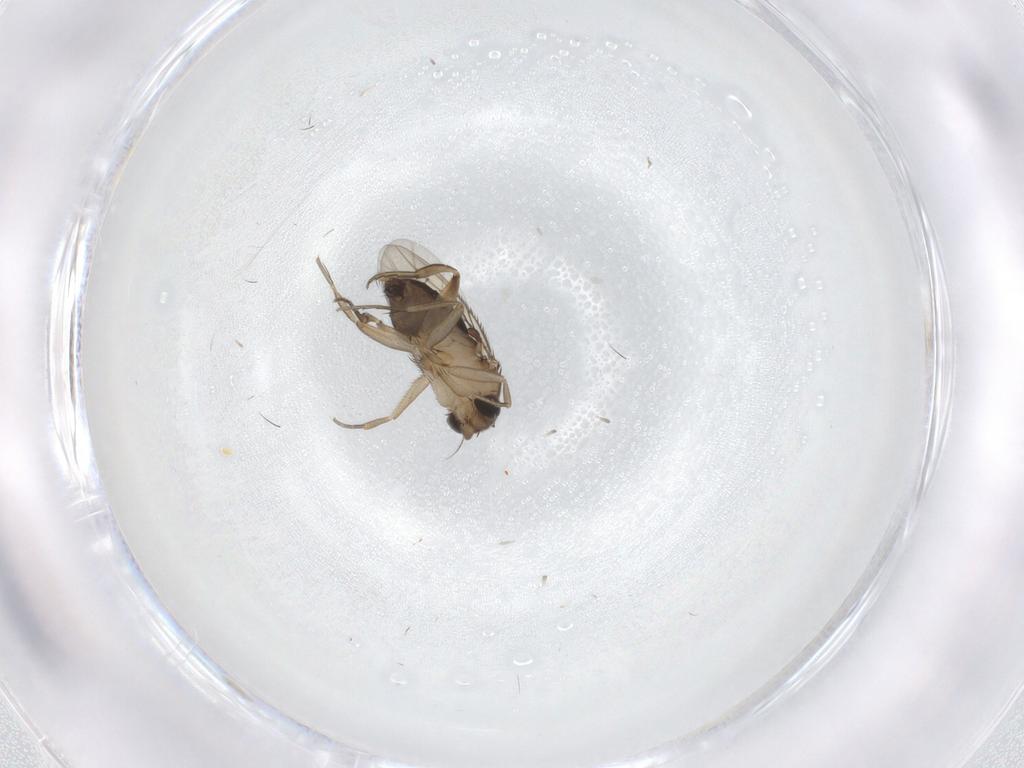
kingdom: Animalia
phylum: Arthropoda
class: Insecta
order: Diptera
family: Phoridae
